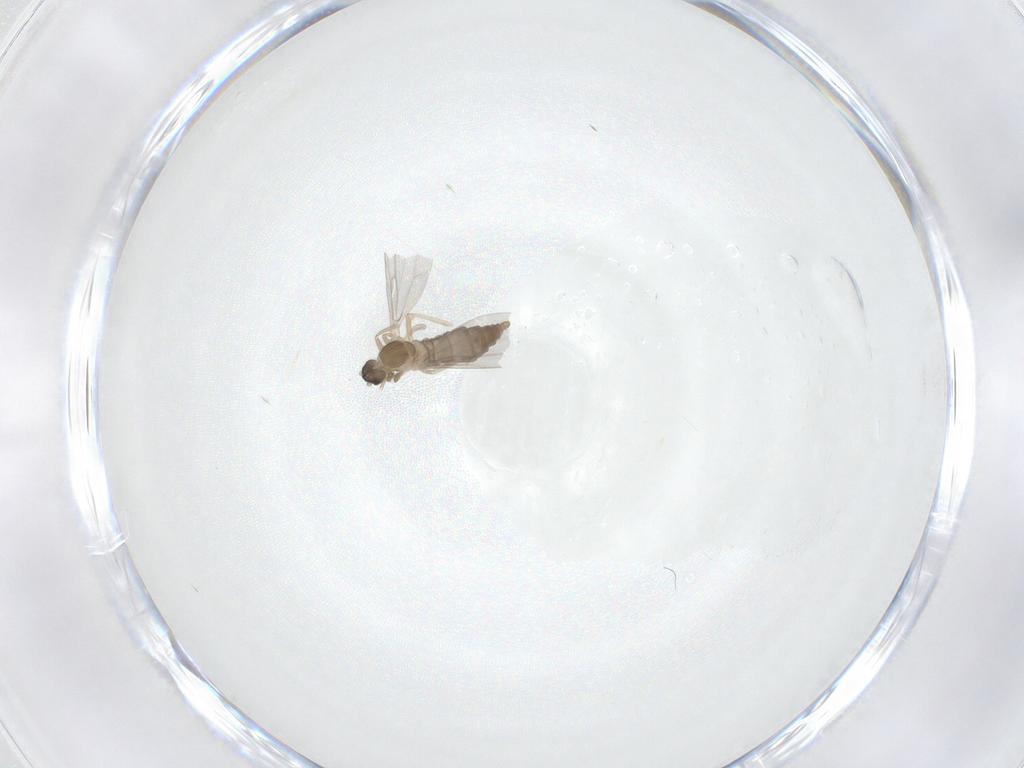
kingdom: Animalia
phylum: Arthropoda
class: Insecta
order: Diptera
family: Cecidomyiidae
